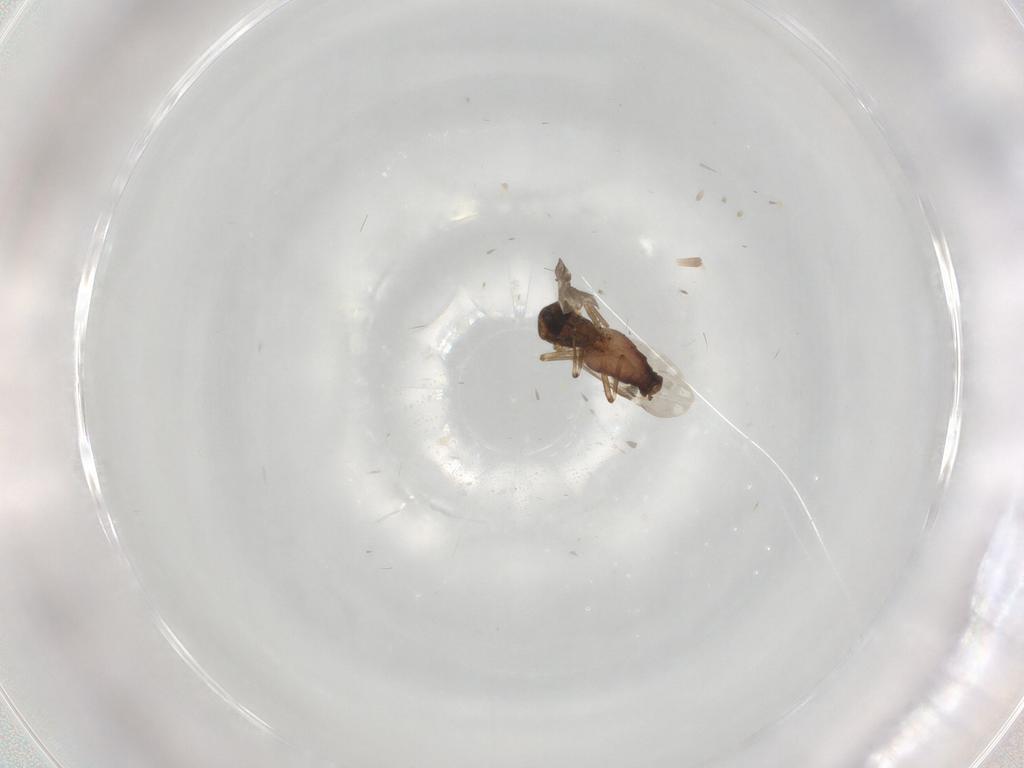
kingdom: Animalia
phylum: Arthropoda
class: Insecta
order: Diptera
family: Ceratopogonidae
